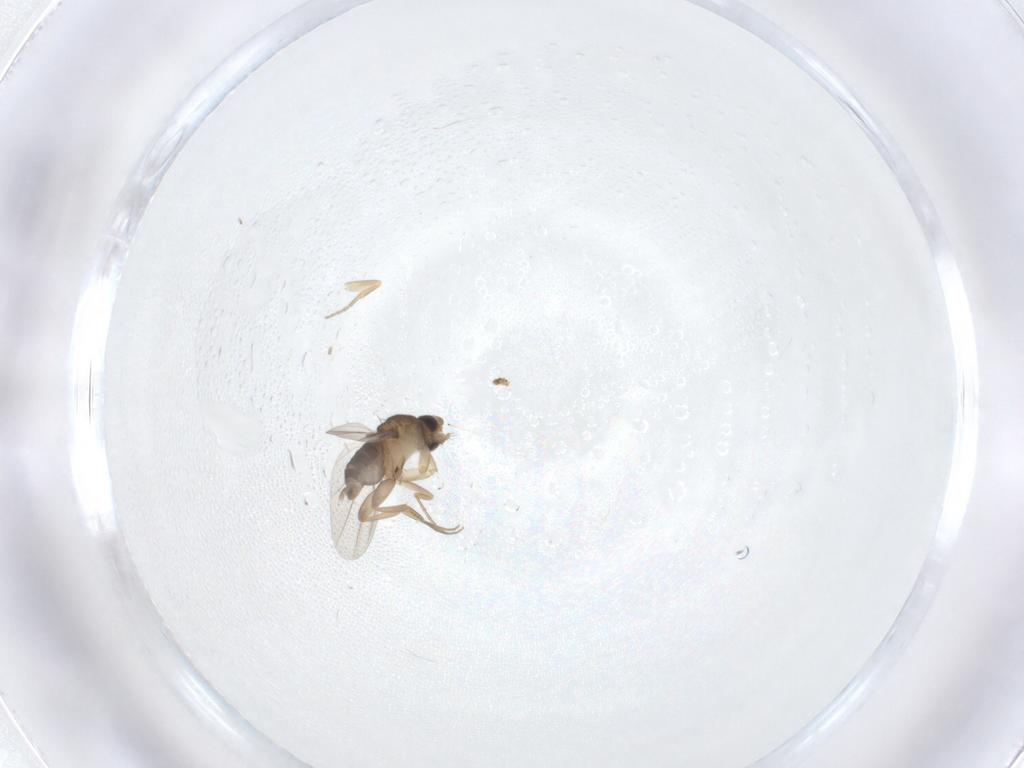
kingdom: Animalia
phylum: Arthropoda
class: Insecta
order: Diptera
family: Phoridae
